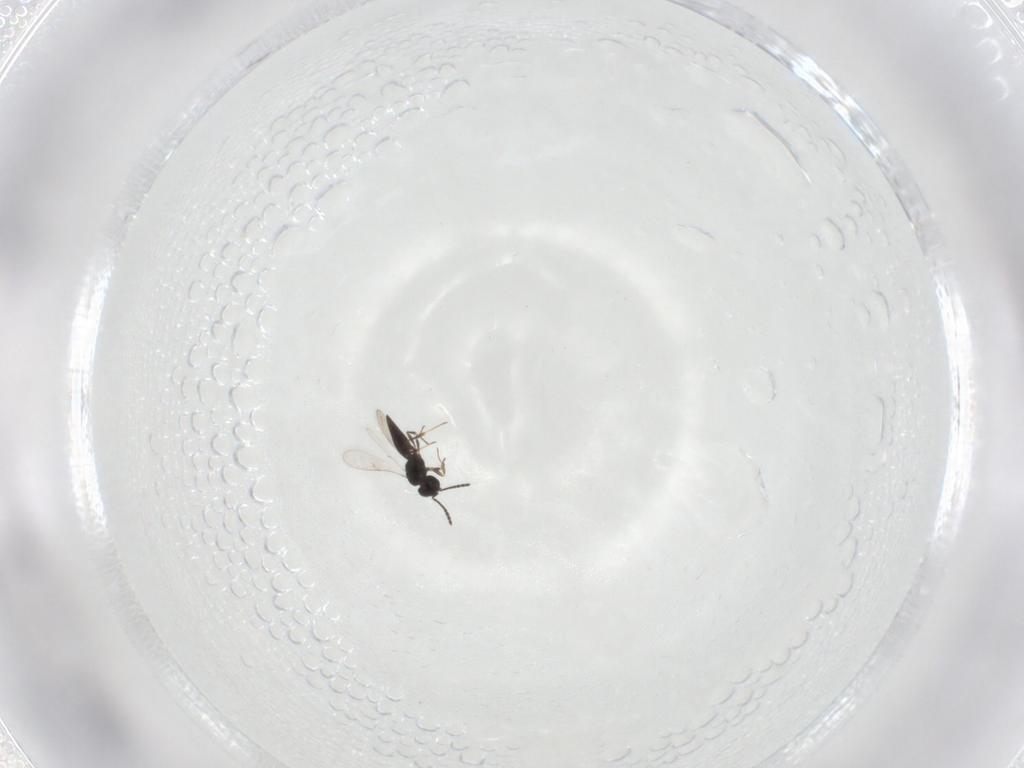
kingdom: Animalia
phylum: Arthropoda
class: Insecta
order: Hymenoptera
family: Scelionidae
